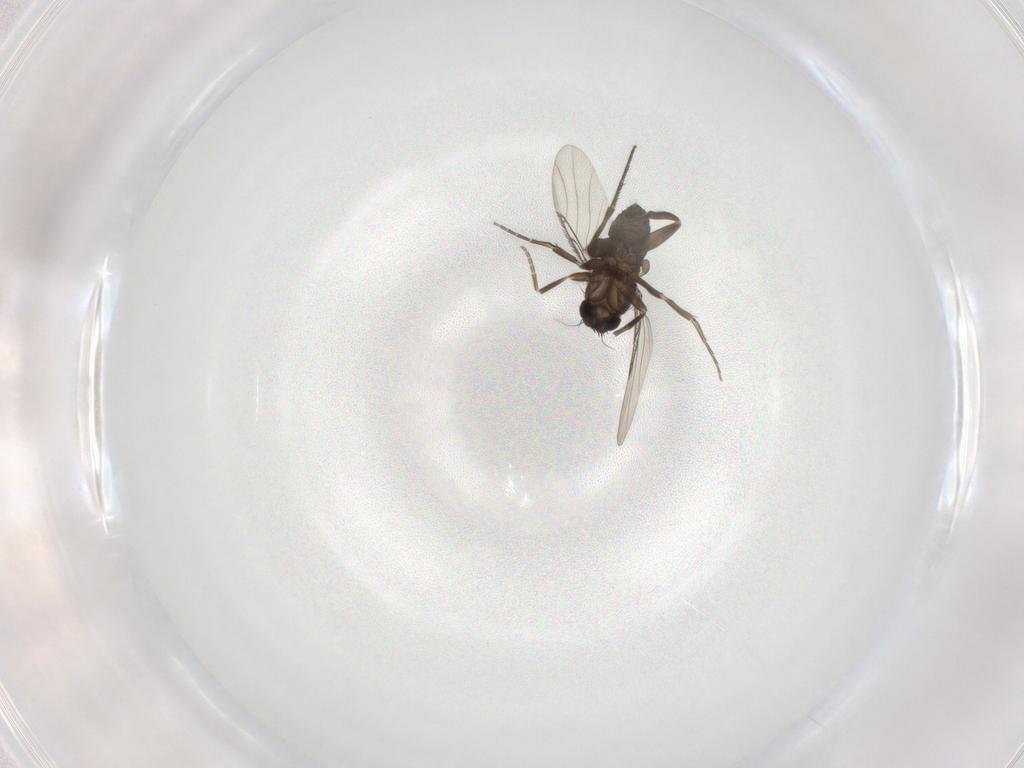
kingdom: Animalia
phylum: Arthropoda
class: Insecta
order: Diptera
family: Phoridae
